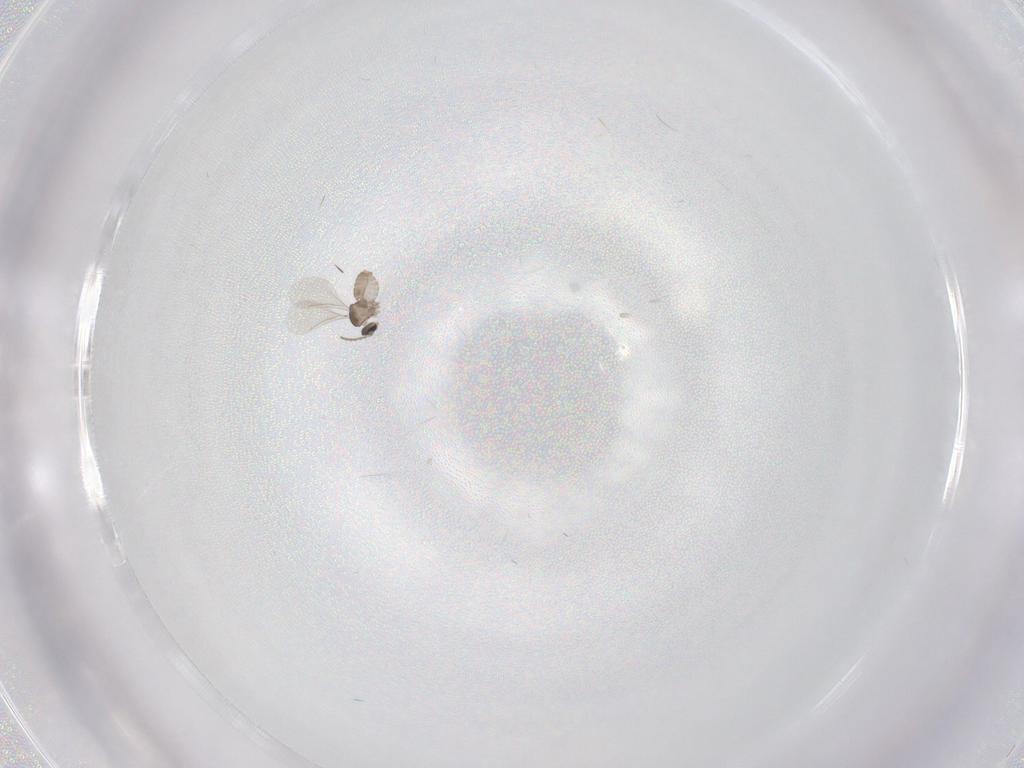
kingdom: Animalia
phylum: Arthropoda
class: Insecta
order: Diptera
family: Cecidomyiidae
